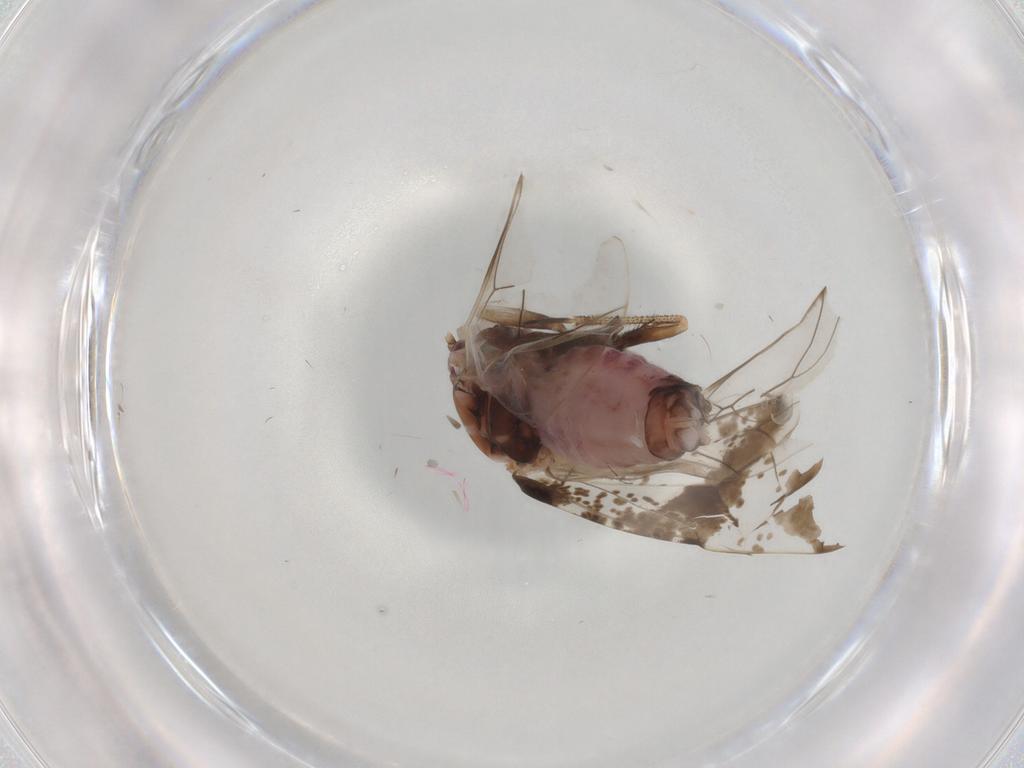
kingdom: Animalia
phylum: Arthropoda
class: Insecta
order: Psocodea
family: Peripsocidae
